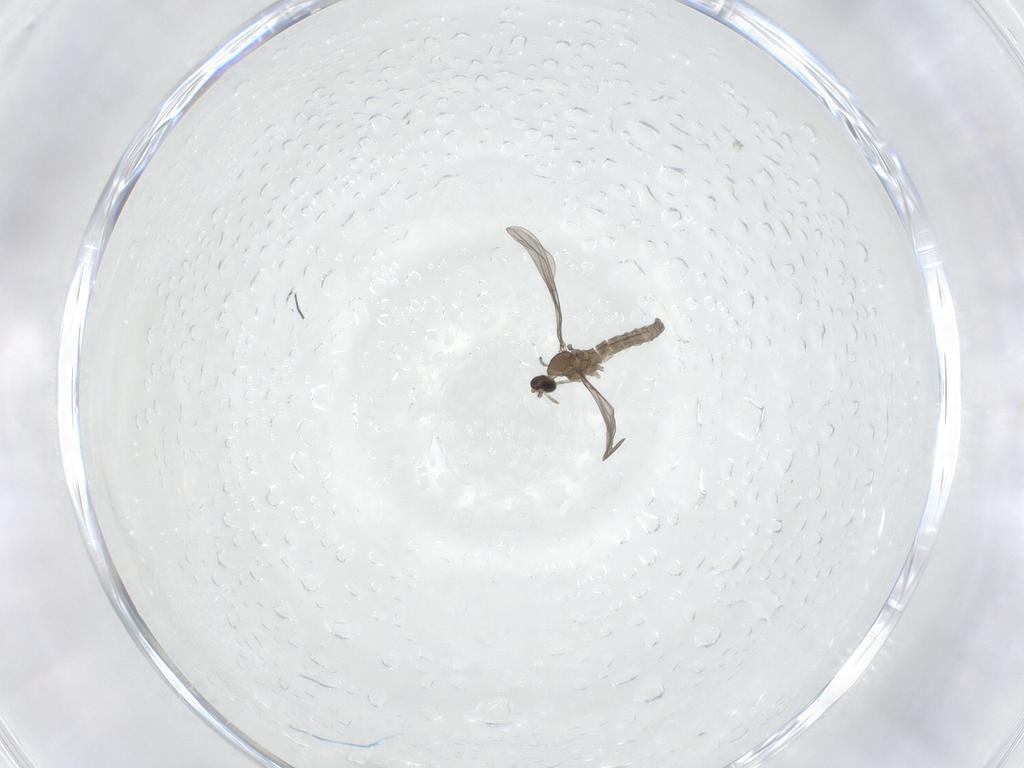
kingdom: Animalia
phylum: Arthropoda
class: Insecta
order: Diptera
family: Cecidomyiidae
